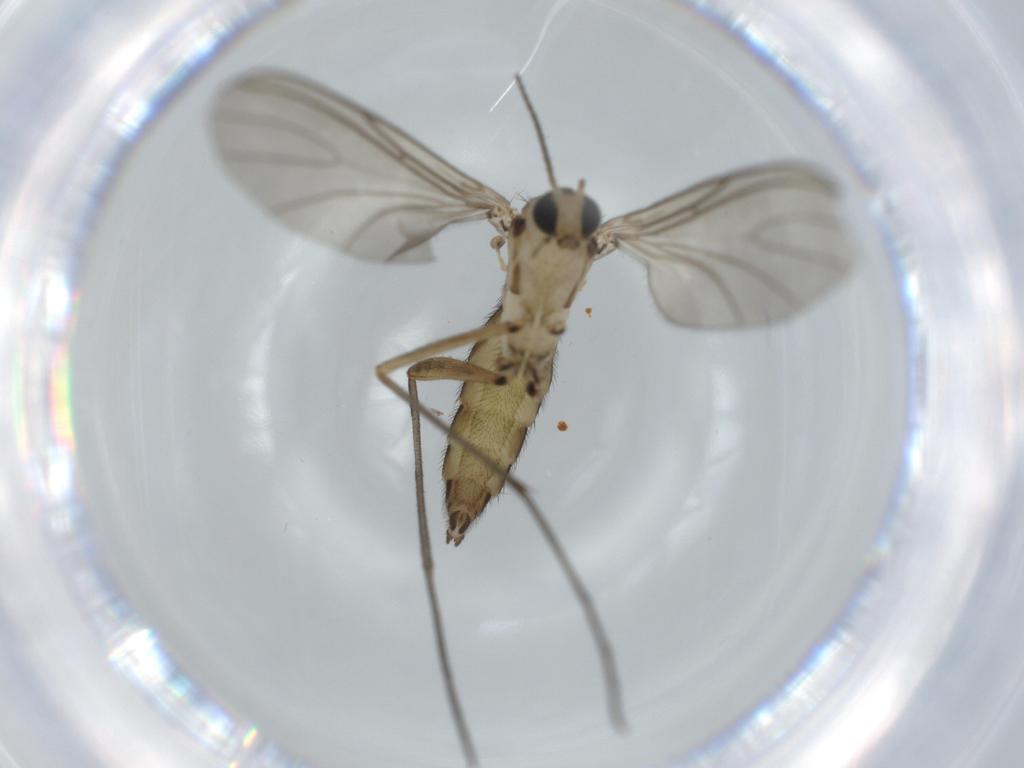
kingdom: Animalia
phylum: Arthropoda
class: Insecta
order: Diptera
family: Sciaridae
